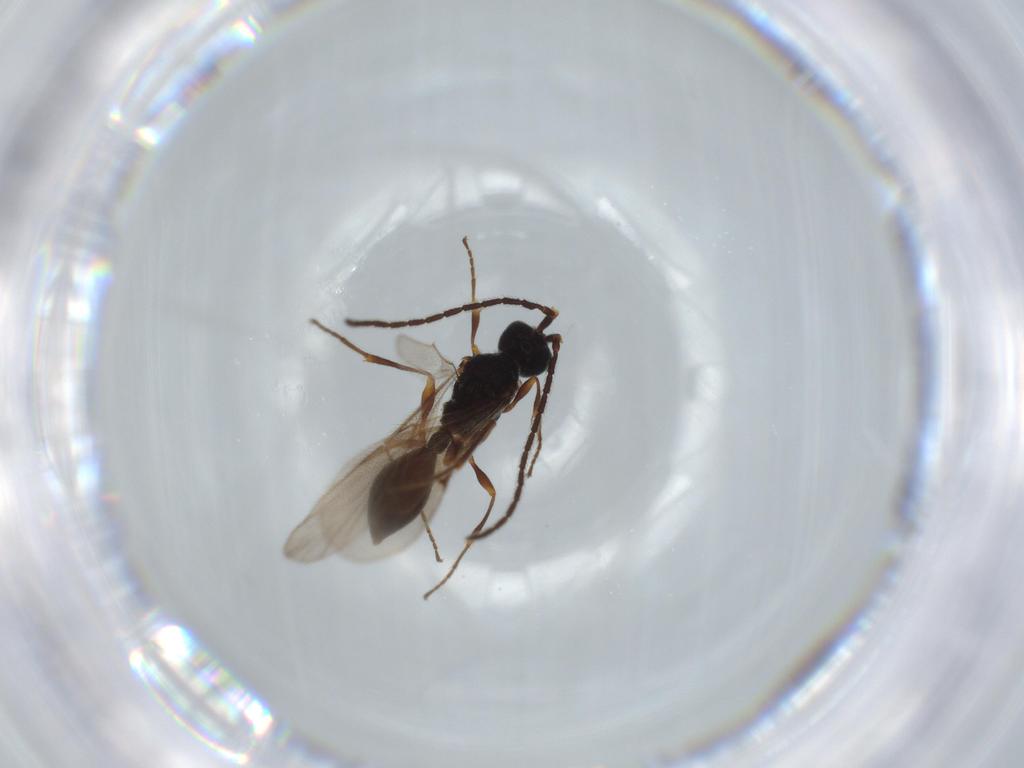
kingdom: Animalia
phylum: Arthropoda
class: Insecta
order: Hymenoptera
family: Pteromalidae
